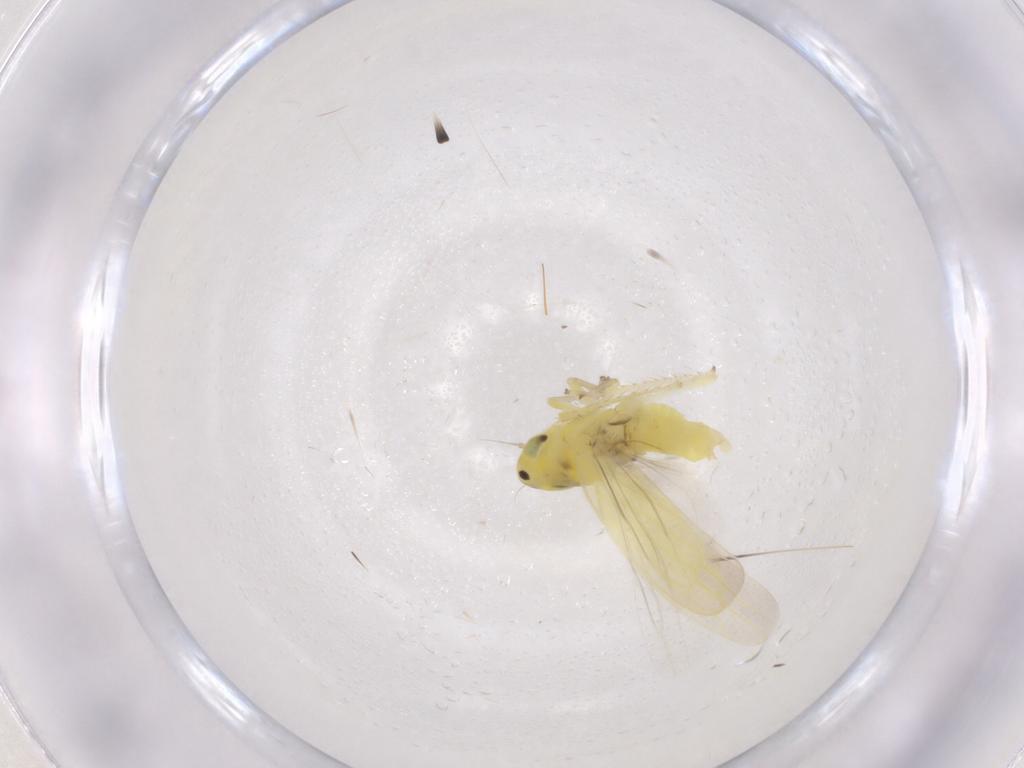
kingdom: Animalia
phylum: Arthropoda
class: Insecta
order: Hemiptera
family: Cicadellidae
